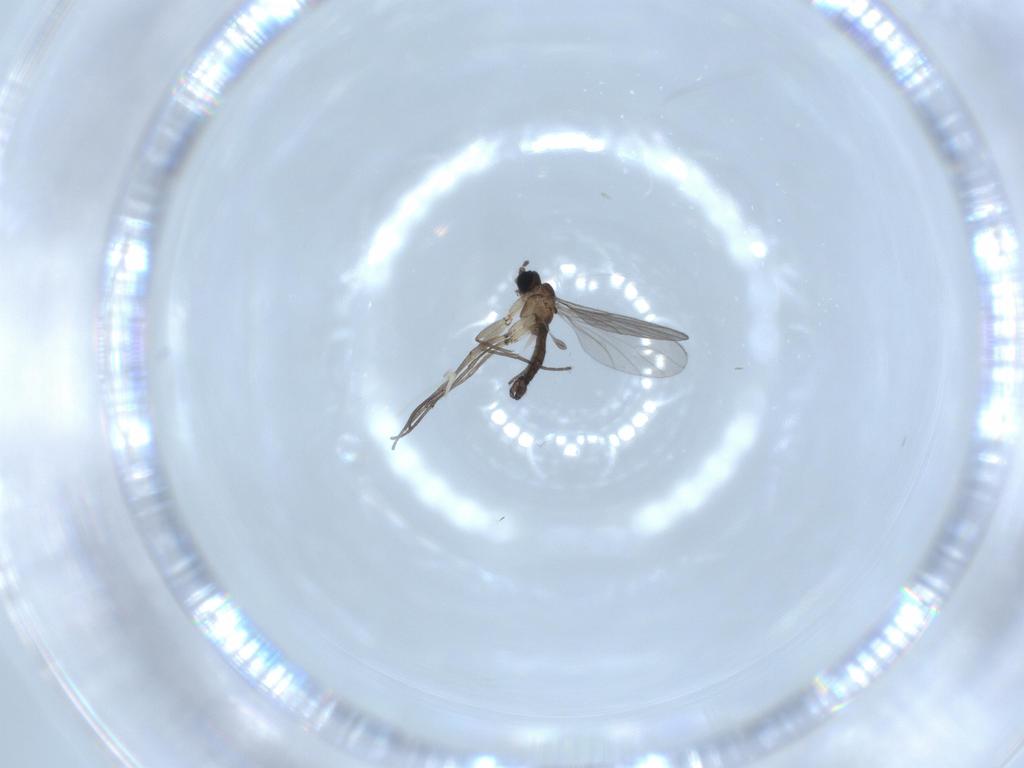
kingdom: Animalia
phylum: Arthropoda
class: Insecta
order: Diptera
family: Sciaridae
